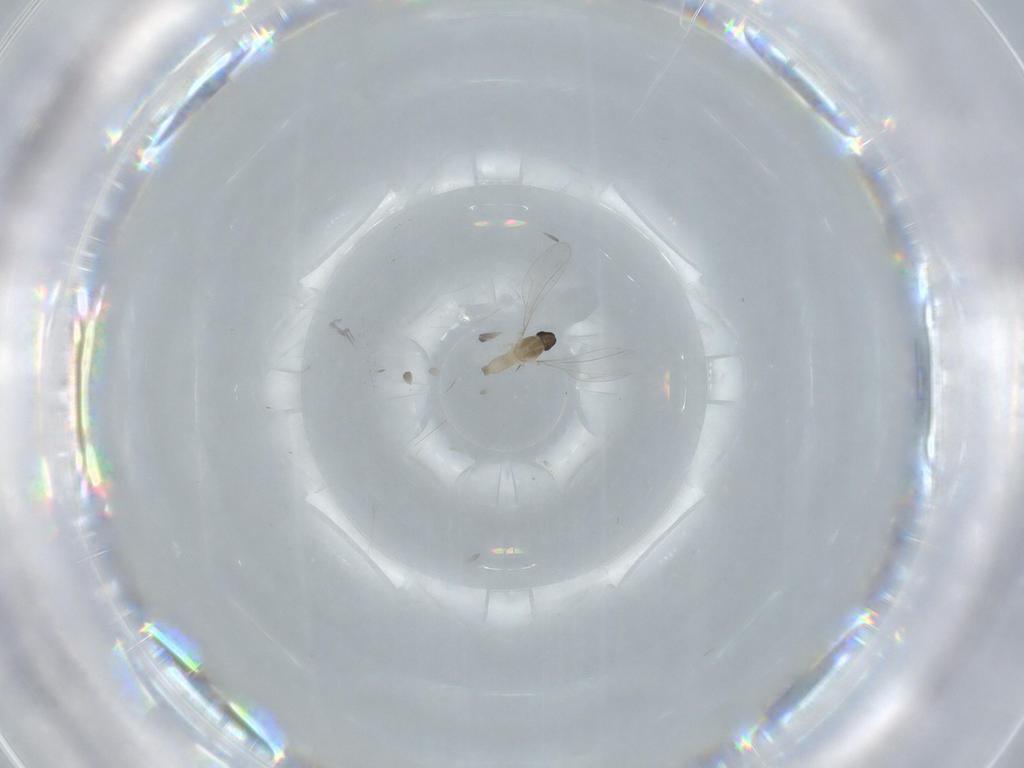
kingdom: Animalia
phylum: Arthropoda
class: Insecta
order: Diptera
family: Cecidomyiidae
